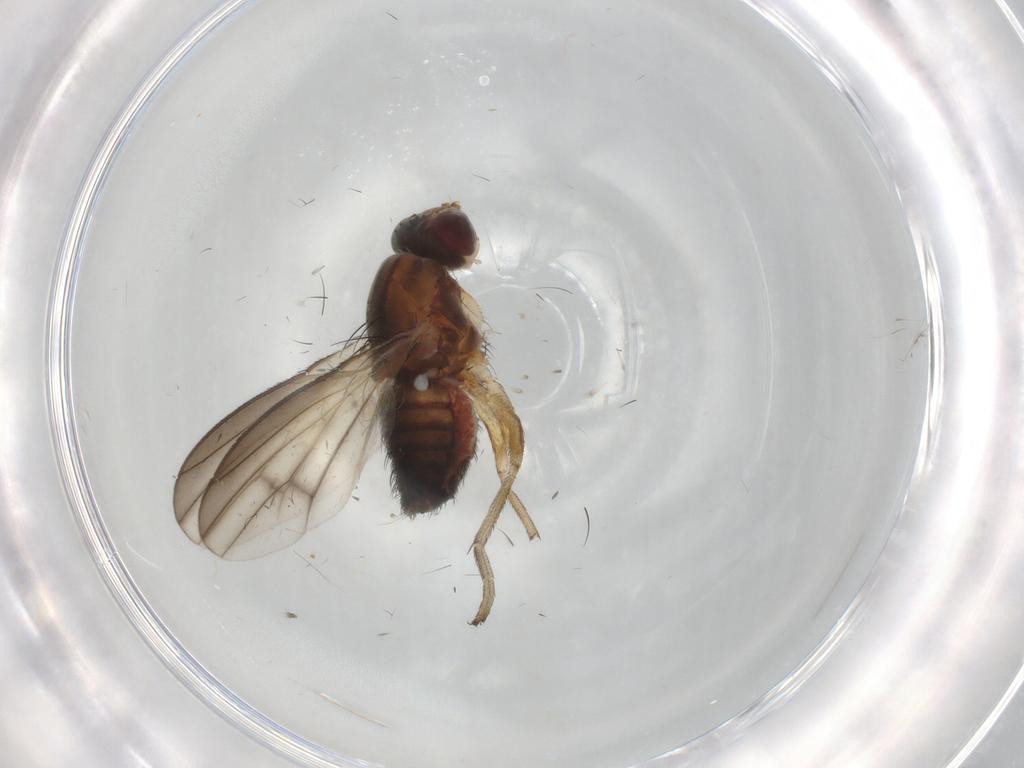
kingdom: Animalia
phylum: Arthropoda
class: Insecta
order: Diptera
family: Heleomyzidae
